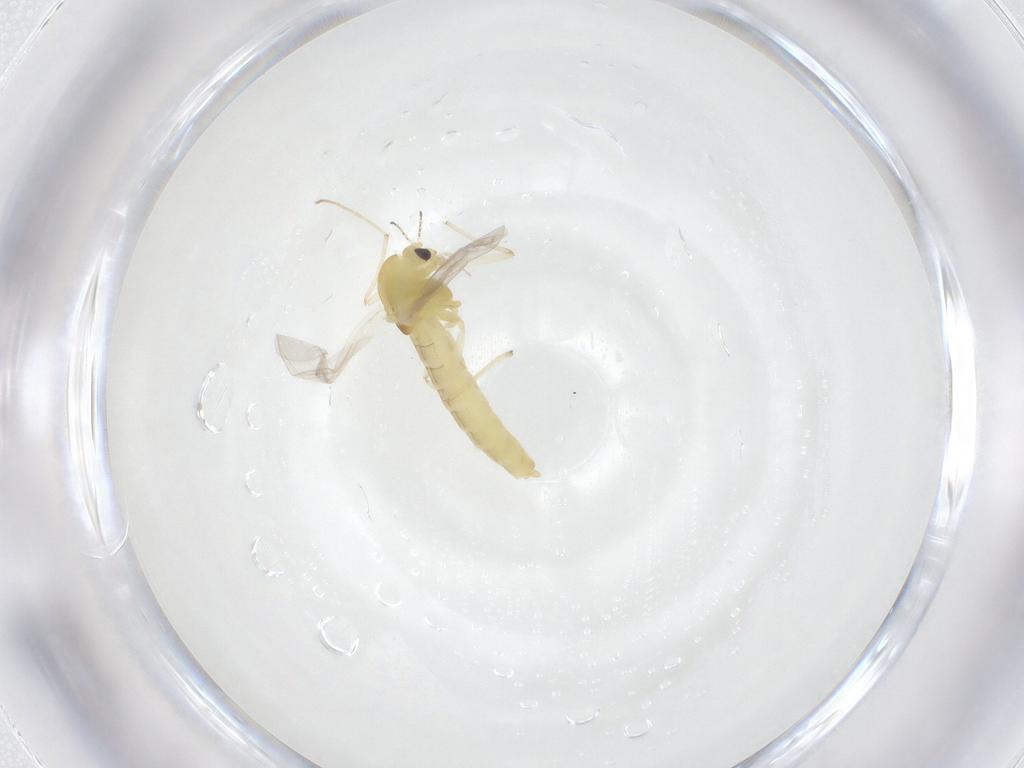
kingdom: Animalia
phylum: Arthropoda
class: Insecta
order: Diptera
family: Chironomidae
